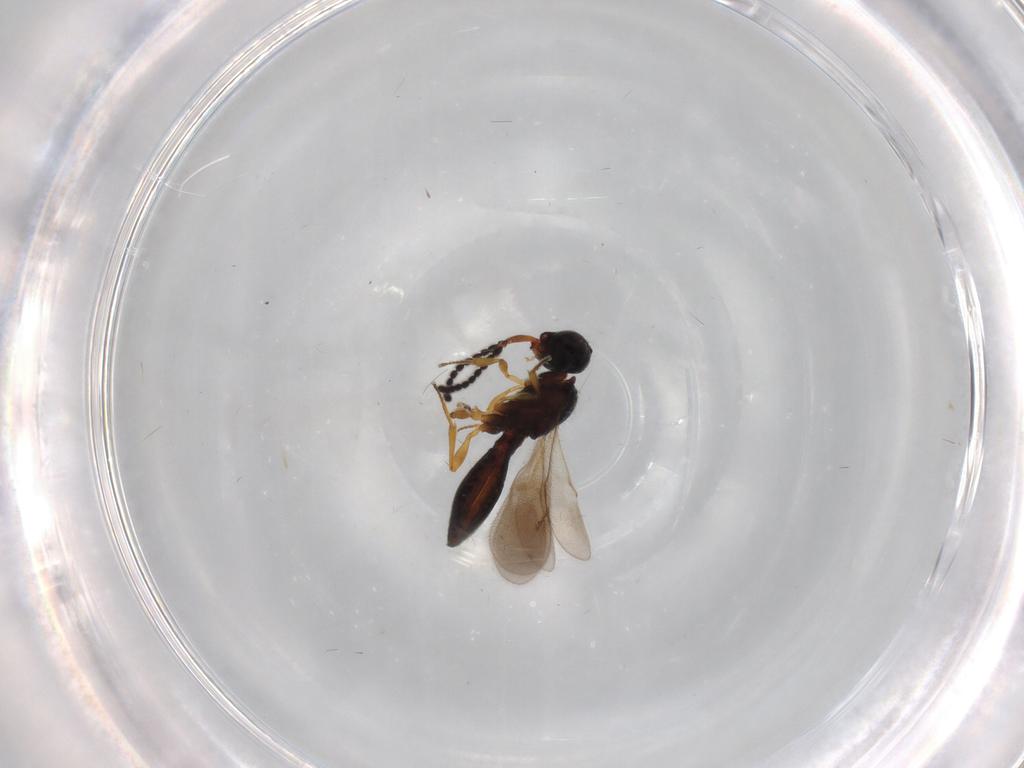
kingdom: Animalia
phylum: Arthropoda
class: Insecta
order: Hymenoptera
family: Scelionidae
